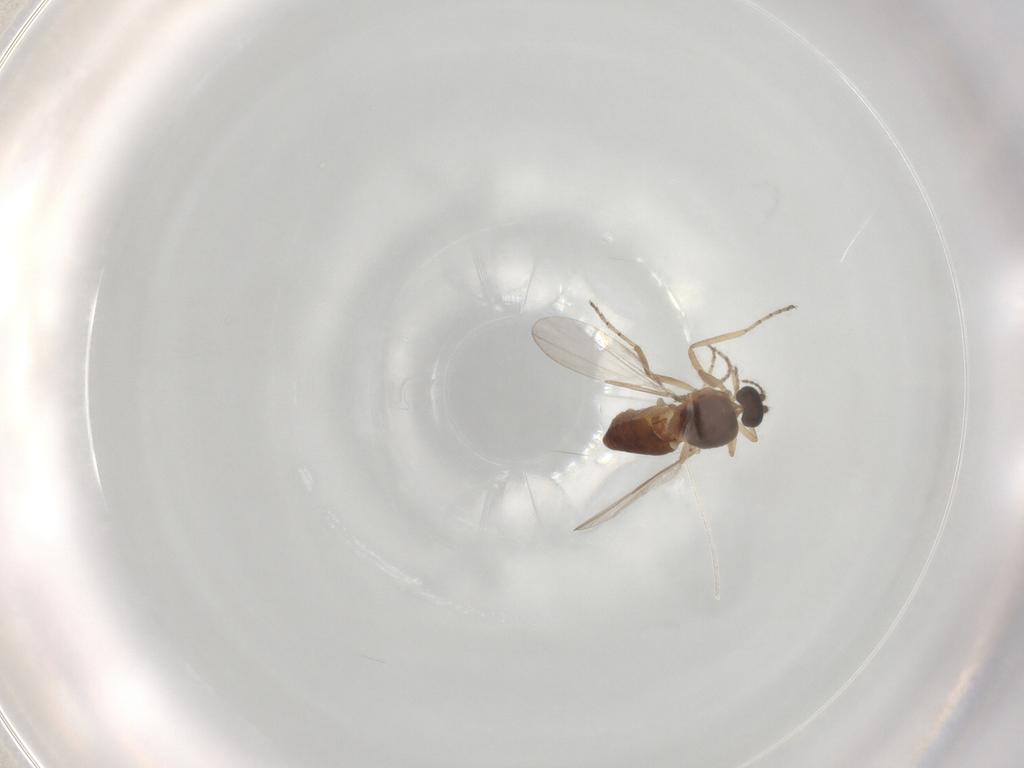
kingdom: Animalia
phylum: Arthropoda
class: Insecta
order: Diptera
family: Ceratopogonidae
